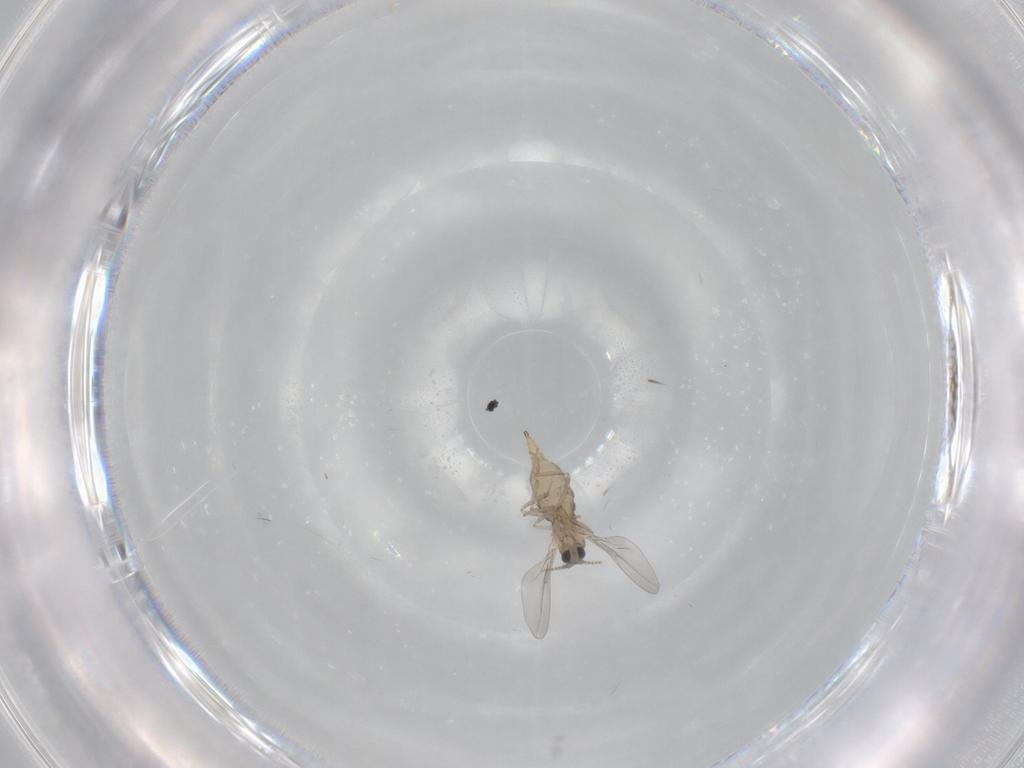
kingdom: Animalia
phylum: Arthropoda
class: Insecta
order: Diptera
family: Cecidomyiidae
